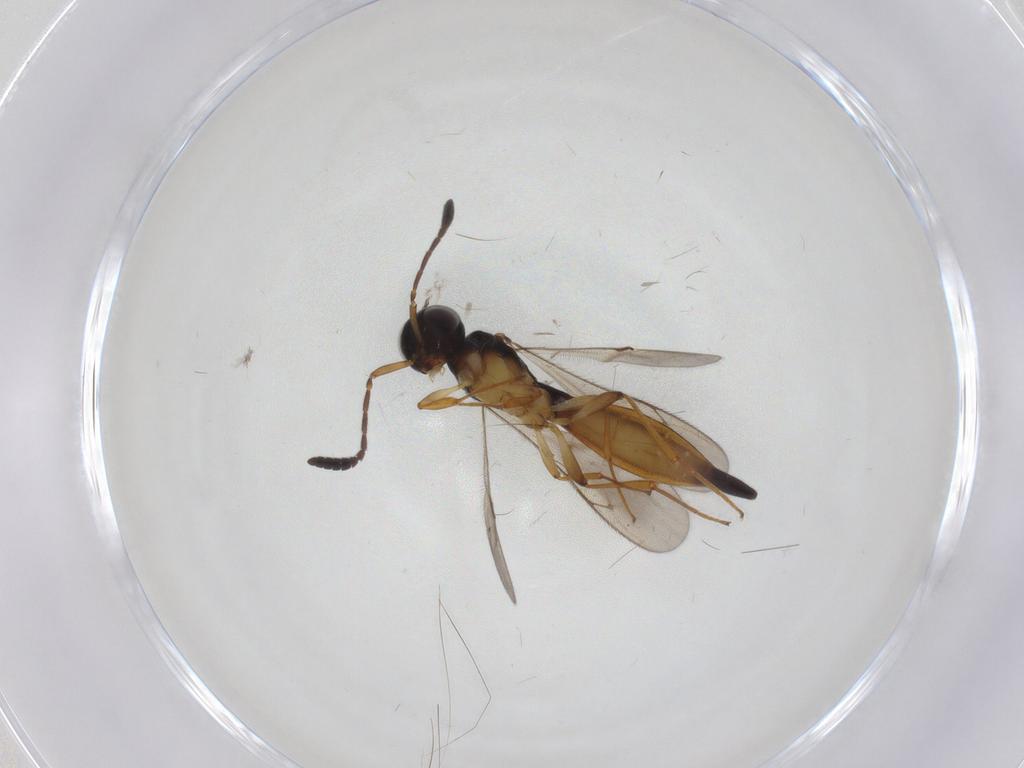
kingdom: Animalia
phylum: Arthropoda
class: Insecta
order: Hymenoptera
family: Scelionidae
